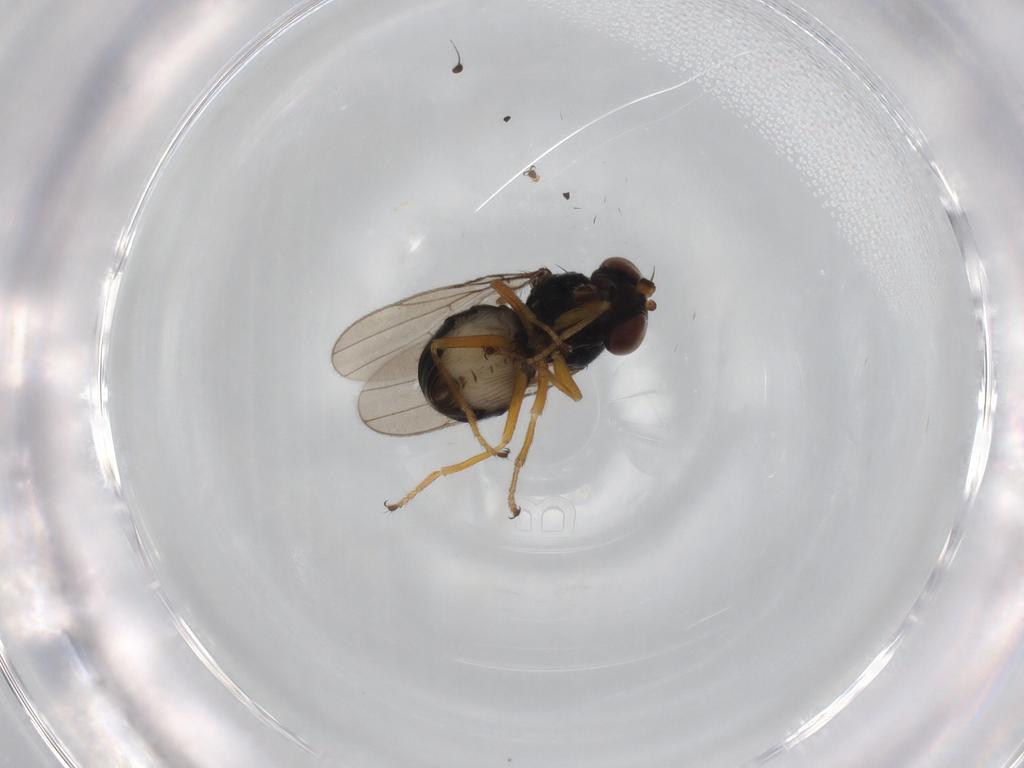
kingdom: Animalia
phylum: Arthropoda
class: Insecta
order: Diptera
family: Ephydridae
